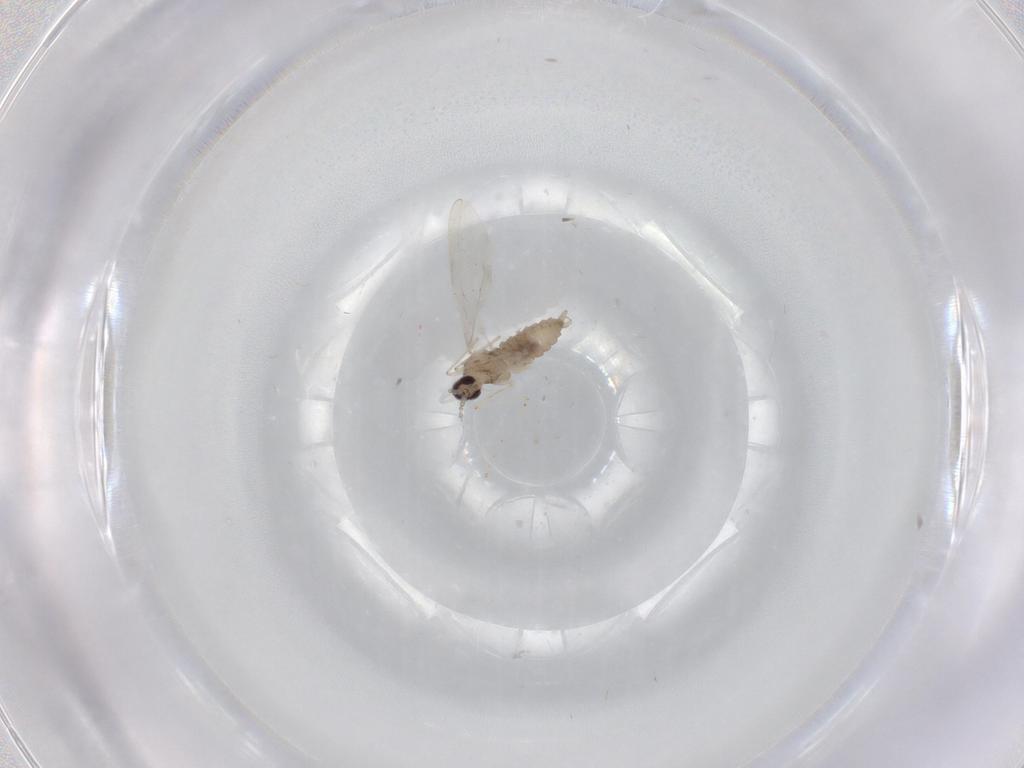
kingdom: Animalia
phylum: Arthropoda
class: Insecta
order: Diptera
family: Cecidomyiidae
